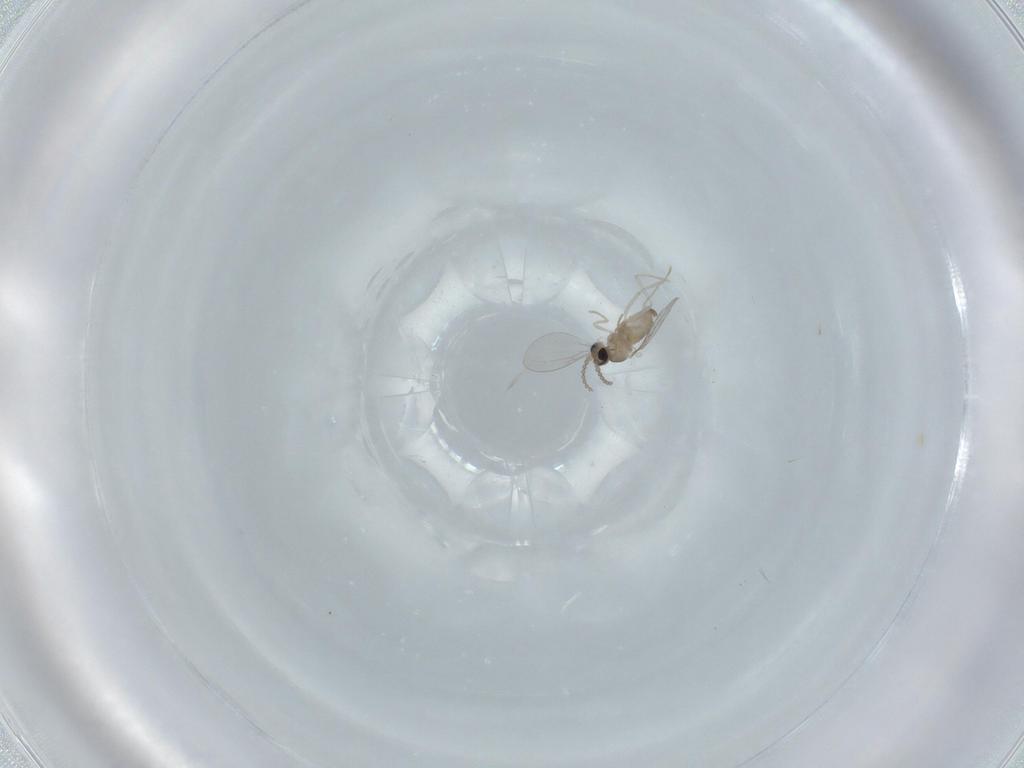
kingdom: Animalia
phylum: Arthropoda
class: Insecta
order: Diptera
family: Cecidomyiidae
